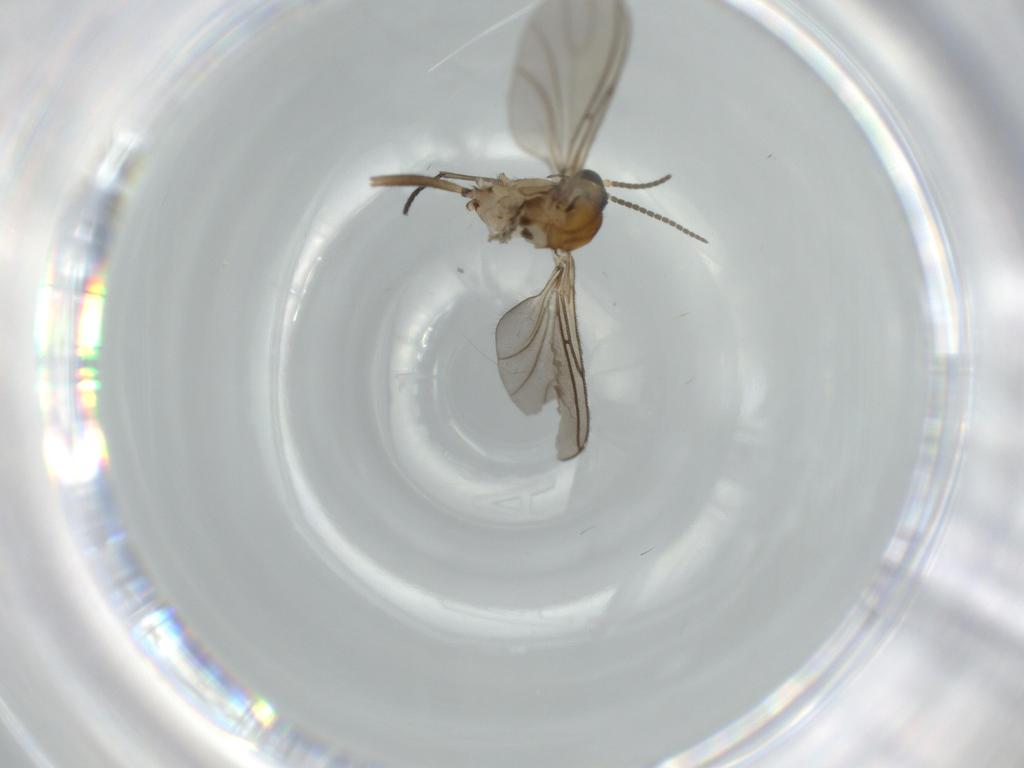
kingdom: Animalia
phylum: Arthropoda
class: Insecta
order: Diptera
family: Sciaridae
